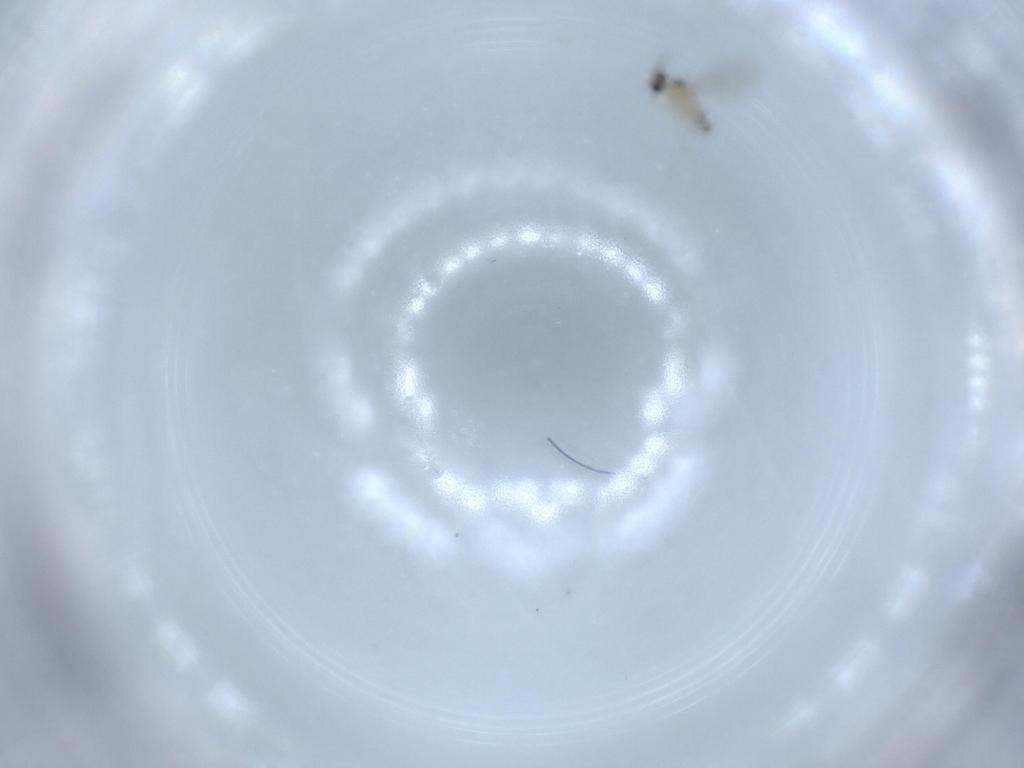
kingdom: Animalia
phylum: Arthropoda
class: Insecta
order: Diptera
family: Cecidomyiidae
